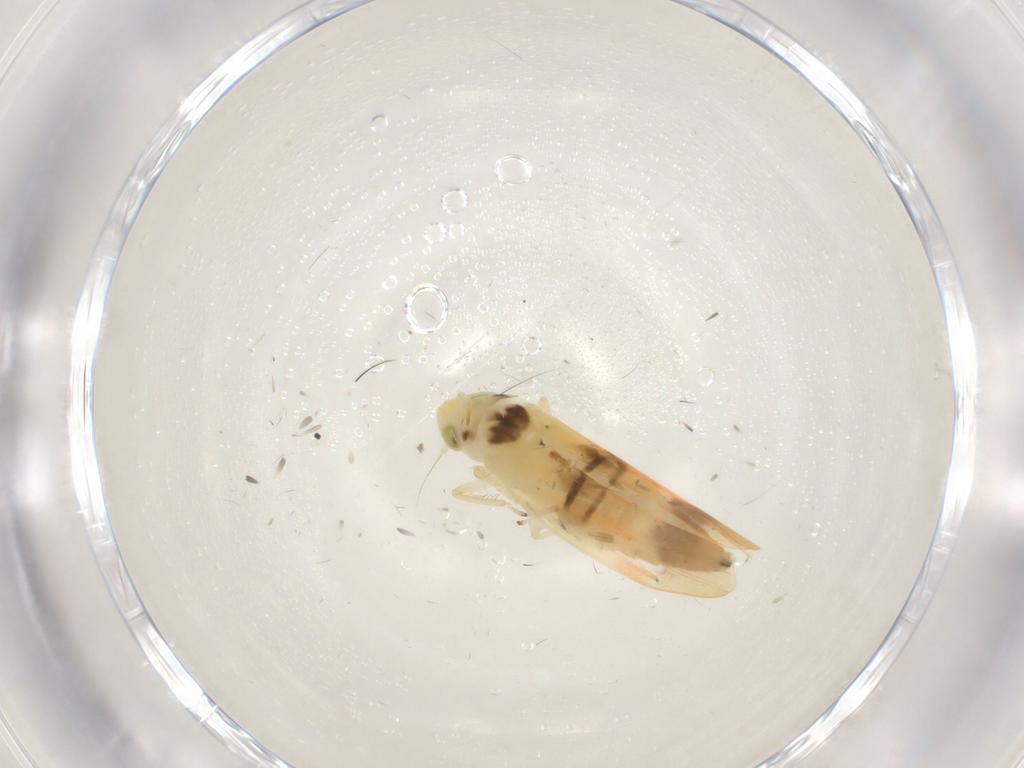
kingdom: Animalia
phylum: Arthropoda
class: Insecta
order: Hemiptera
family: Cicadellidae
